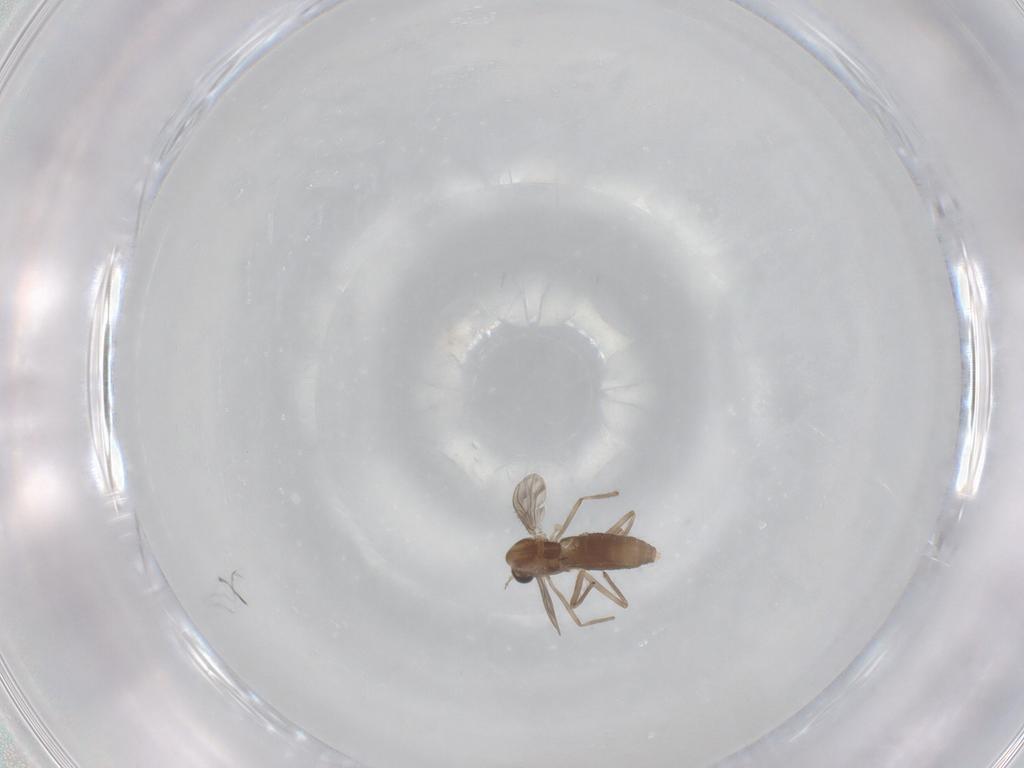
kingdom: Animalia
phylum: Arthropoda
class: Insecta
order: Diptera
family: Chironomidae
